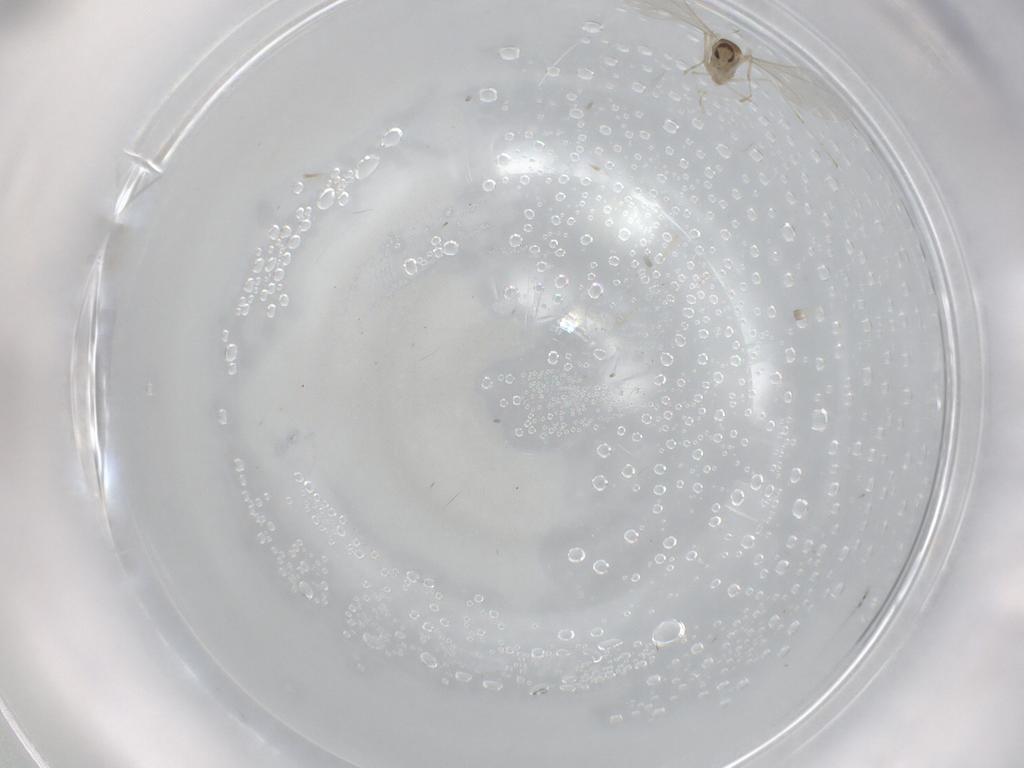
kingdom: Animalia
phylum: Arthropoda
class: Insecta
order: Diptera
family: Cecidomyiidae
